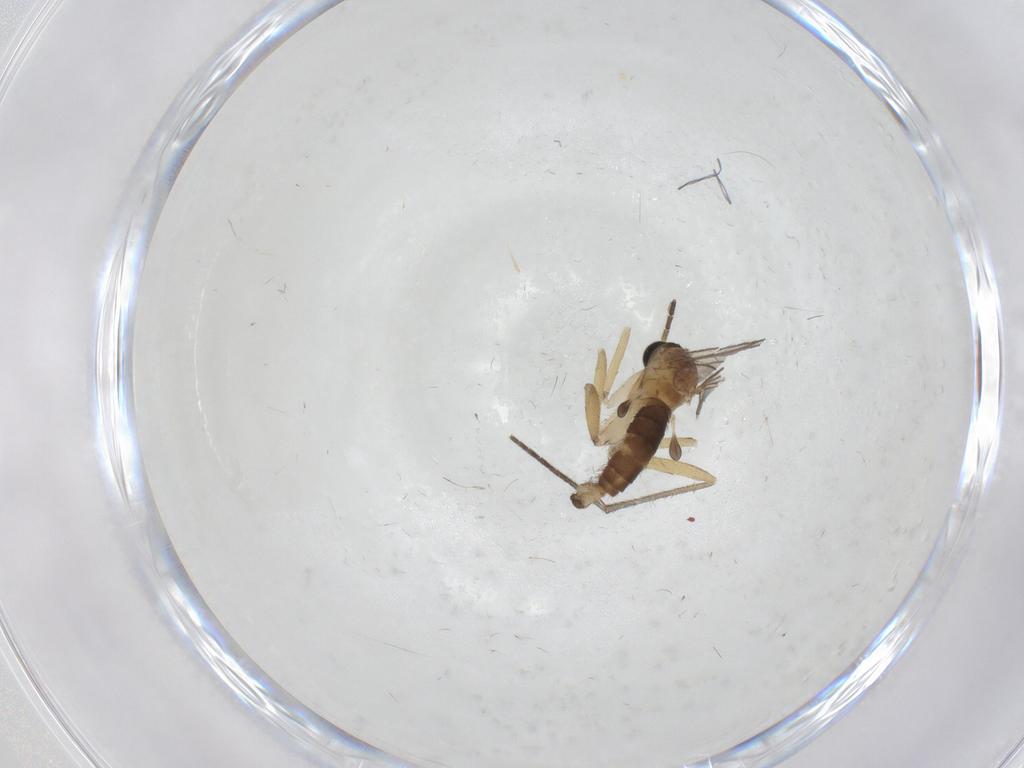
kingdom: Animalia
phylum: Arthropoda
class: Insecta
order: Diptera
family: Sciaridae
